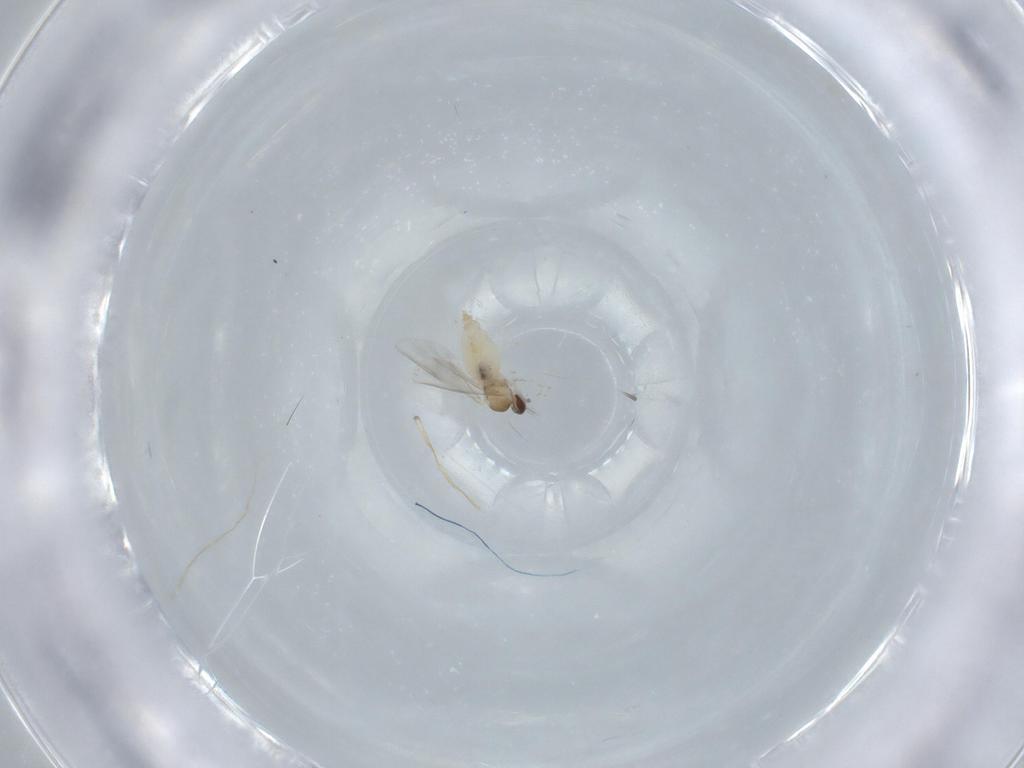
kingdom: Animalia
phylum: Arthropoda
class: Insecta
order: Diptera
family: Cecidomyiidae
